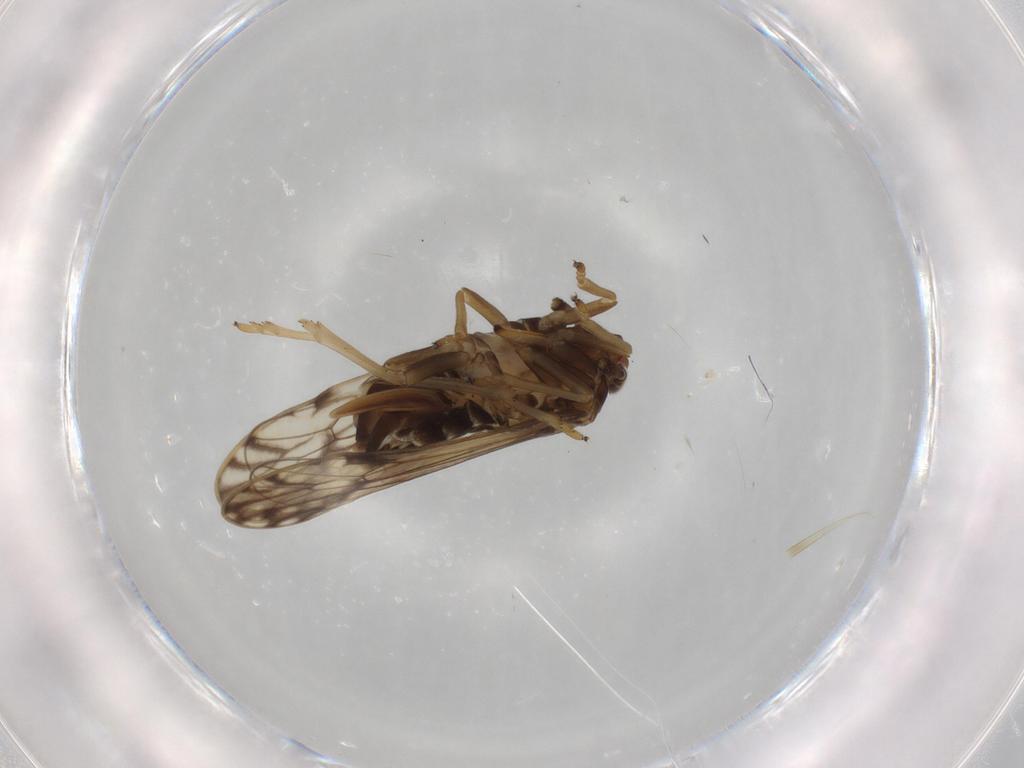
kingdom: Animalia
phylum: Arthropoda
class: Insecta
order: Hemiptera
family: Delphacidae
